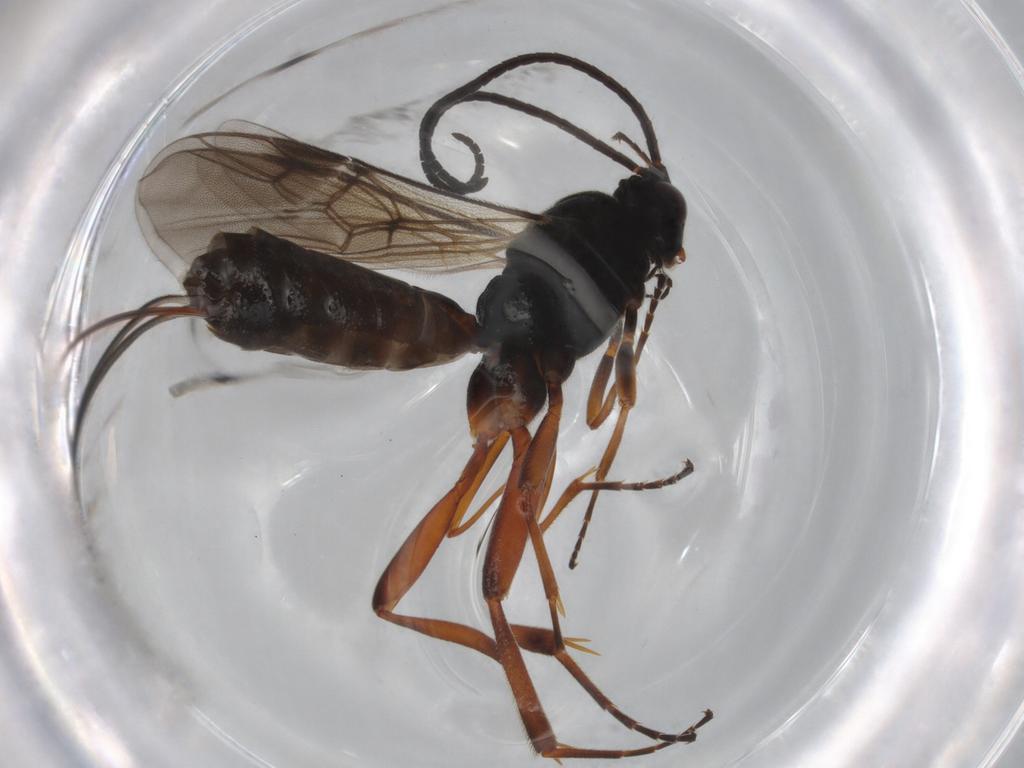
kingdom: Animalia
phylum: Arthropoda
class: Insecta
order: Hymenoptera
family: Braconidae
